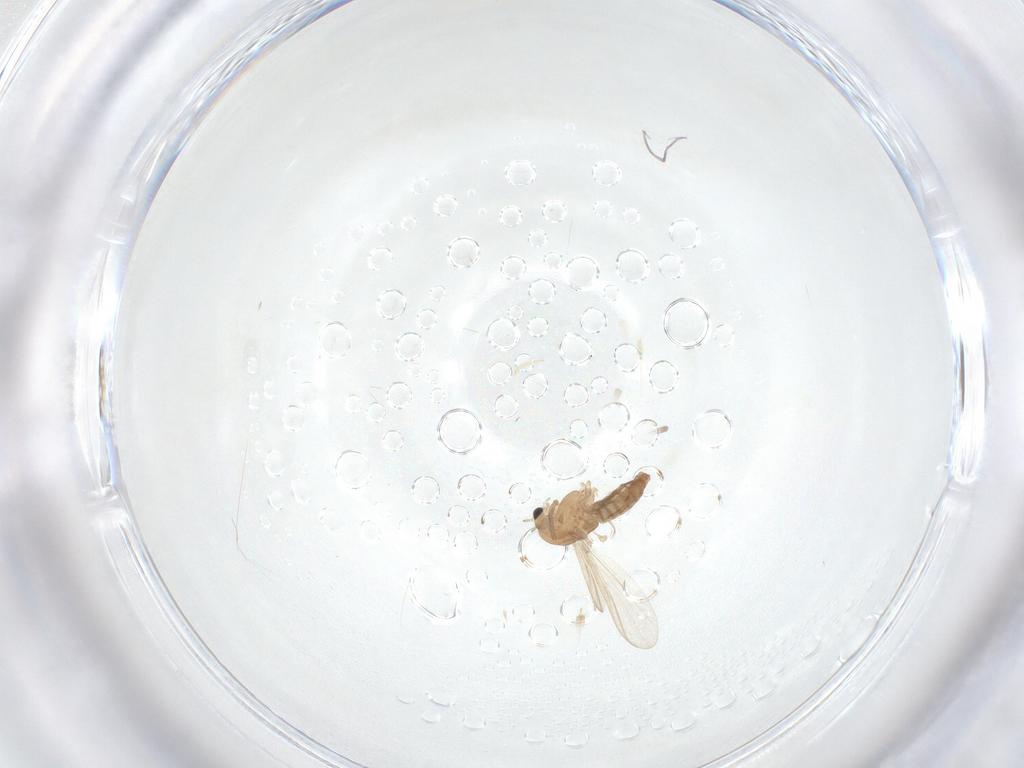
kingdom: Animalia
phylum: Arthropoda
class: Insecta
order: Diptera
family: Chironomidae
